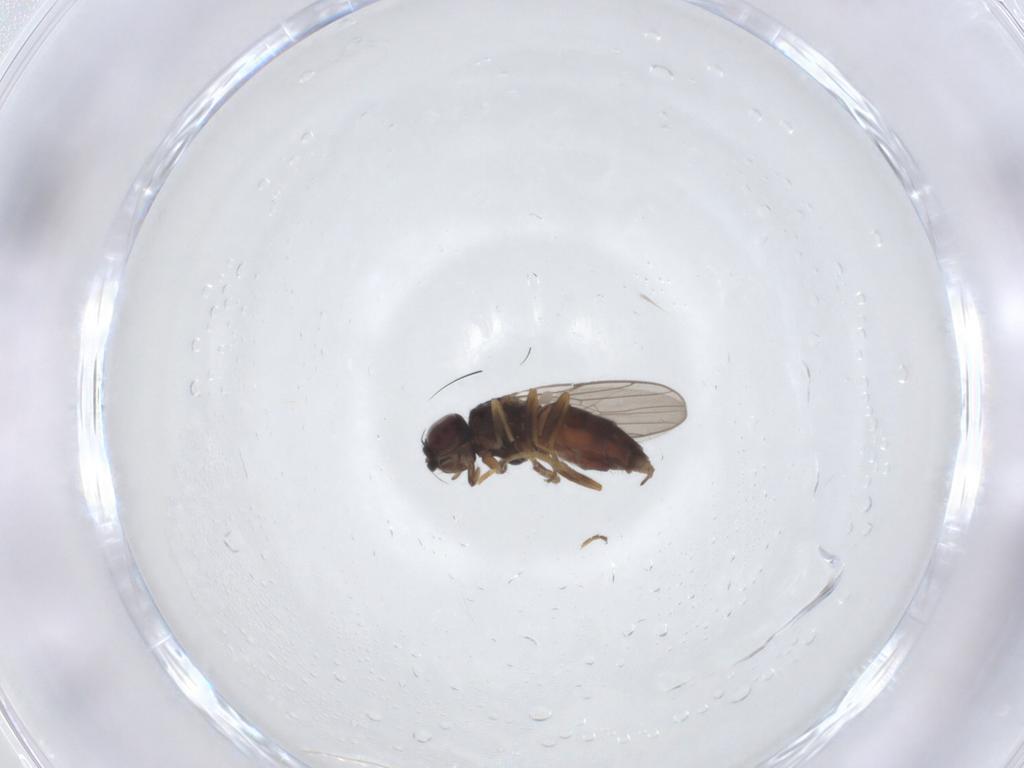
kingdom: Animalia
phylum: Arthropoda
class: Insecta
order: Diptera
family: Chloropidae
